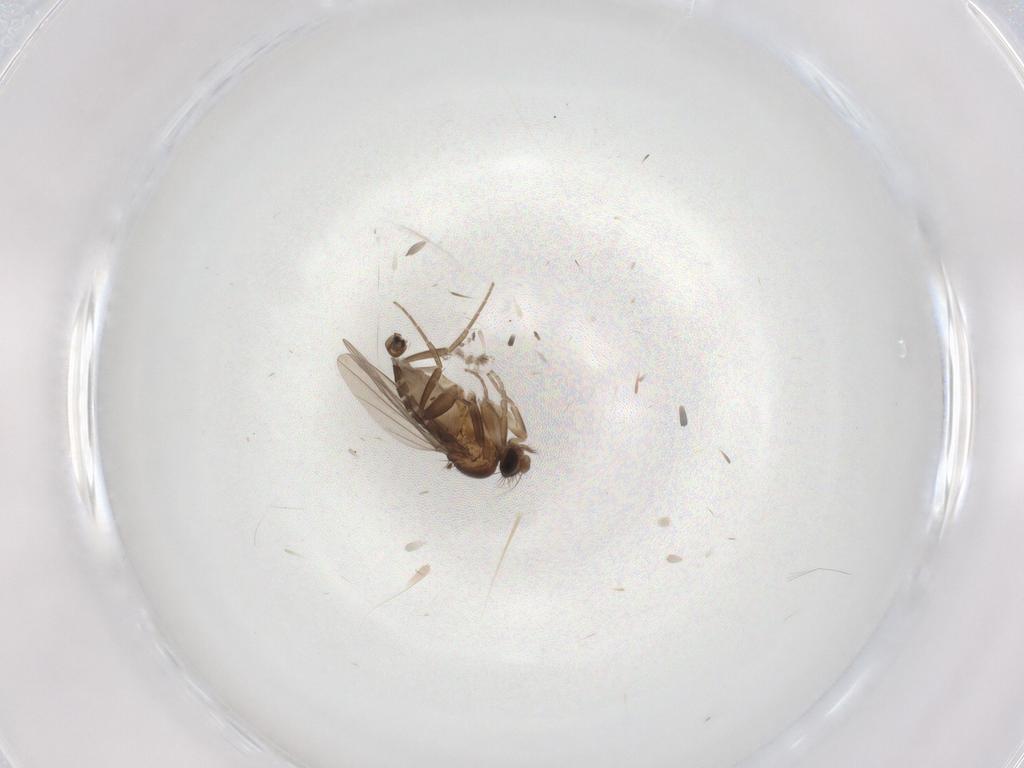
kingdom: Animalia
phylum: Arthropoda
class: Insecta
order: Diptera
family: Phoridae
